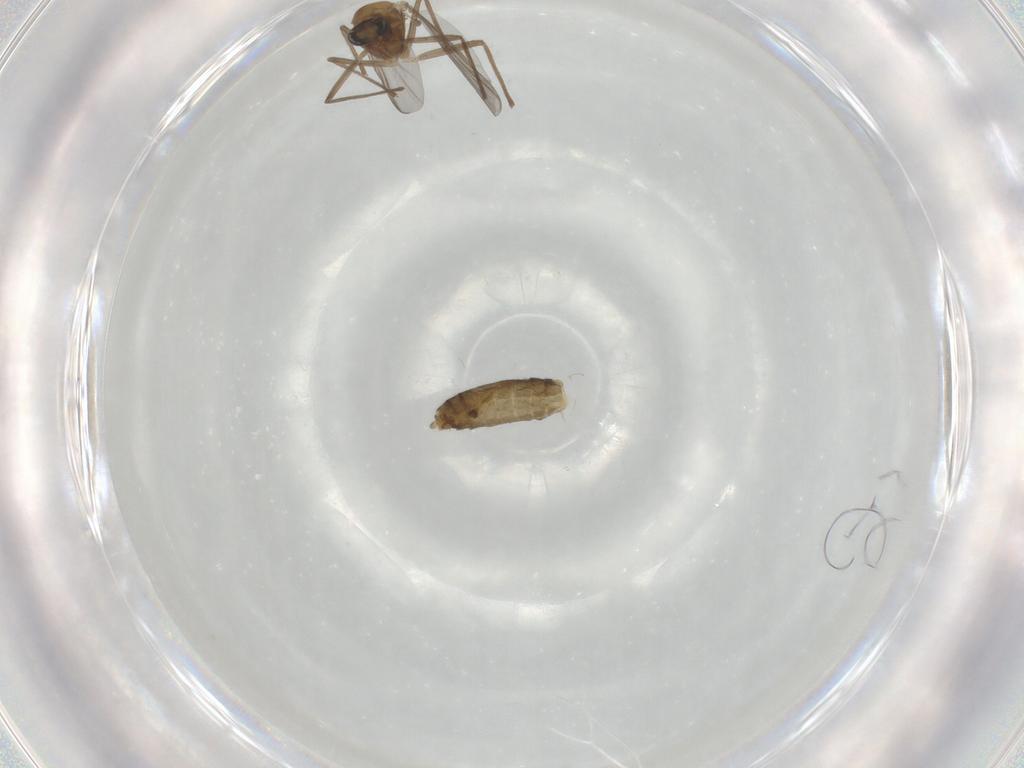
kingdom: Animalia
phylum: Arthropoda
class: Insecta
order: Diptera
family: Chironomidae
